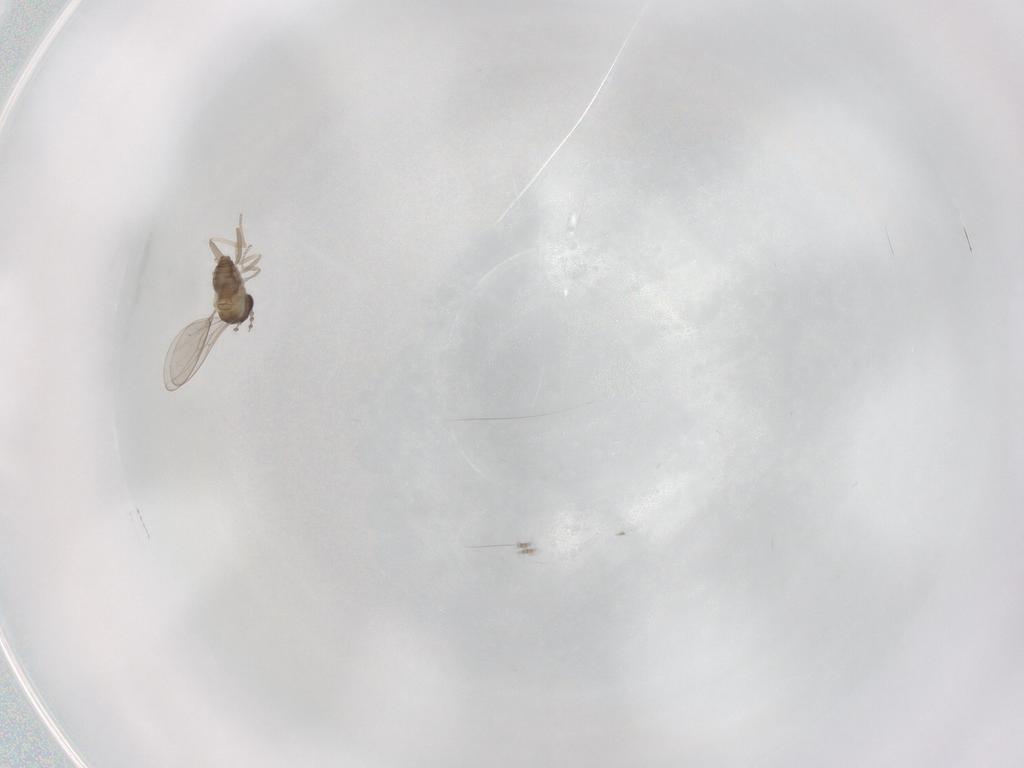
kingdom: Animalia
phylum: Arthropoda
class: Insecta
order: Diptera
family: Cecidomyiidae
